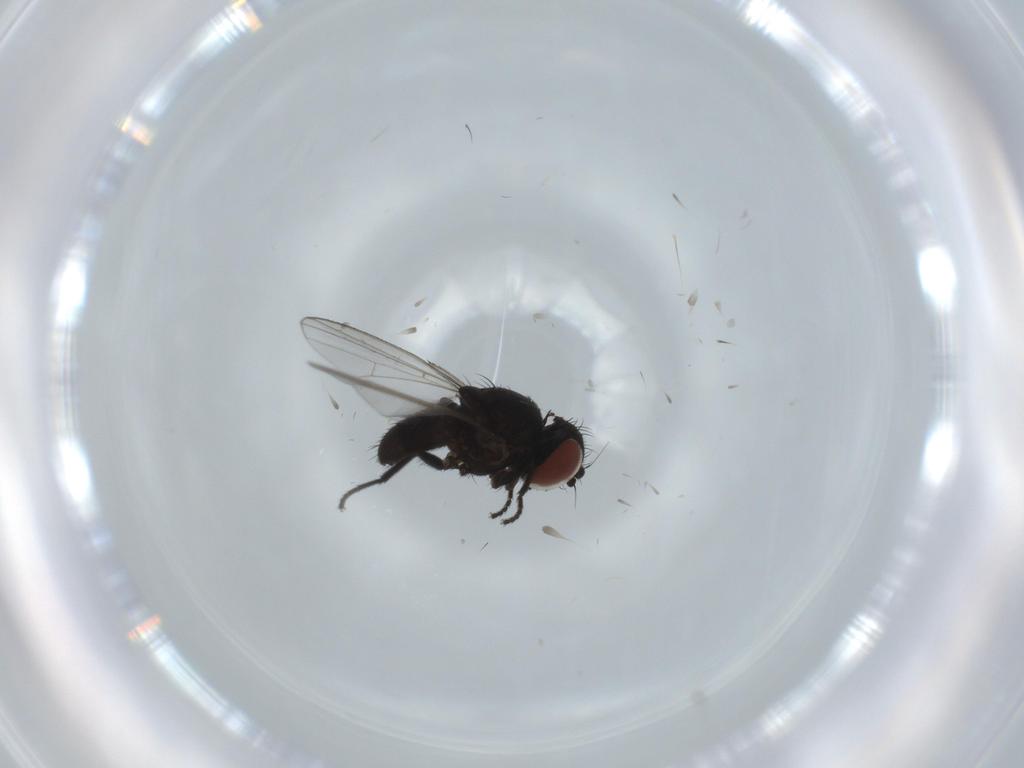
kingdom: Animalia
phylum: Arthropoda
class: Insecta
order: Diptera
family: Milichiidae
